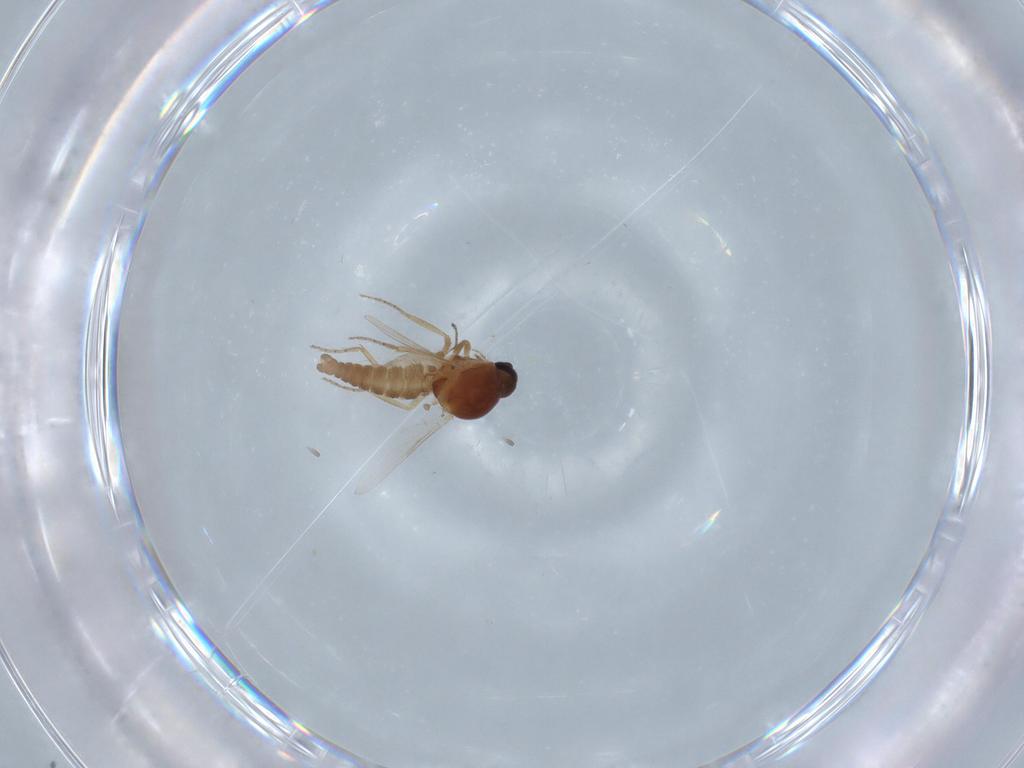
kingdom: Animalia
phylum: Arthropoda
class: Insecta
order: Diptera
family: Ceratopogonidae
